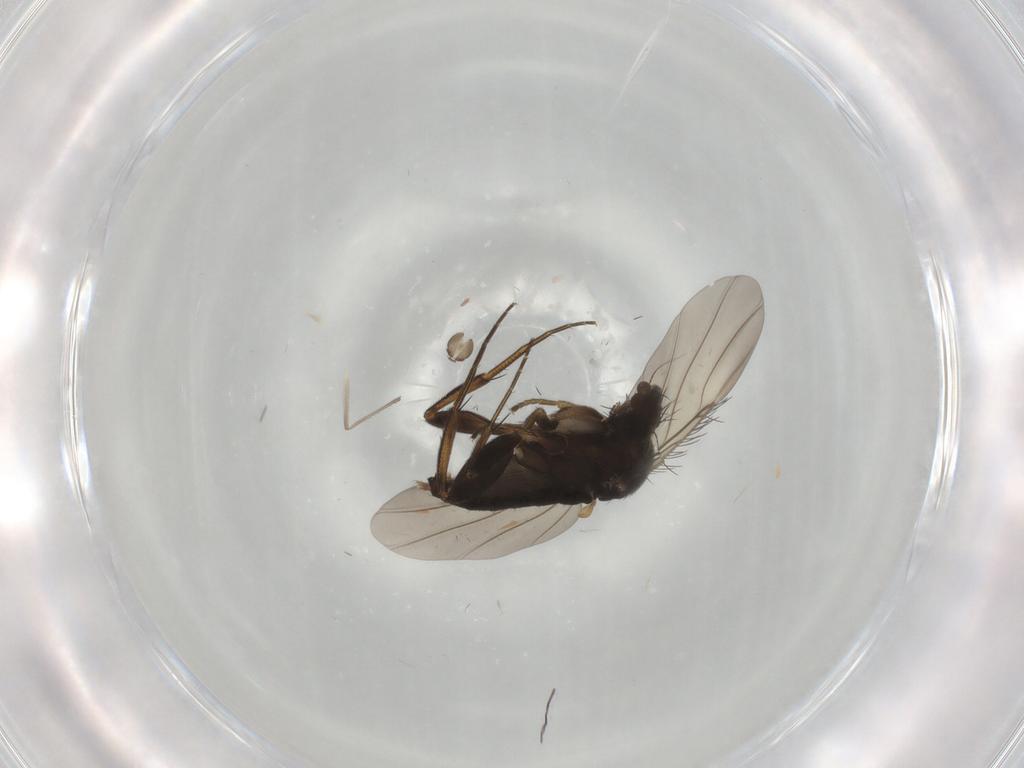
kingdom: Animalia
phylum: Arthropoda
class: Insecta
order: Diptera
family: Phoridae
